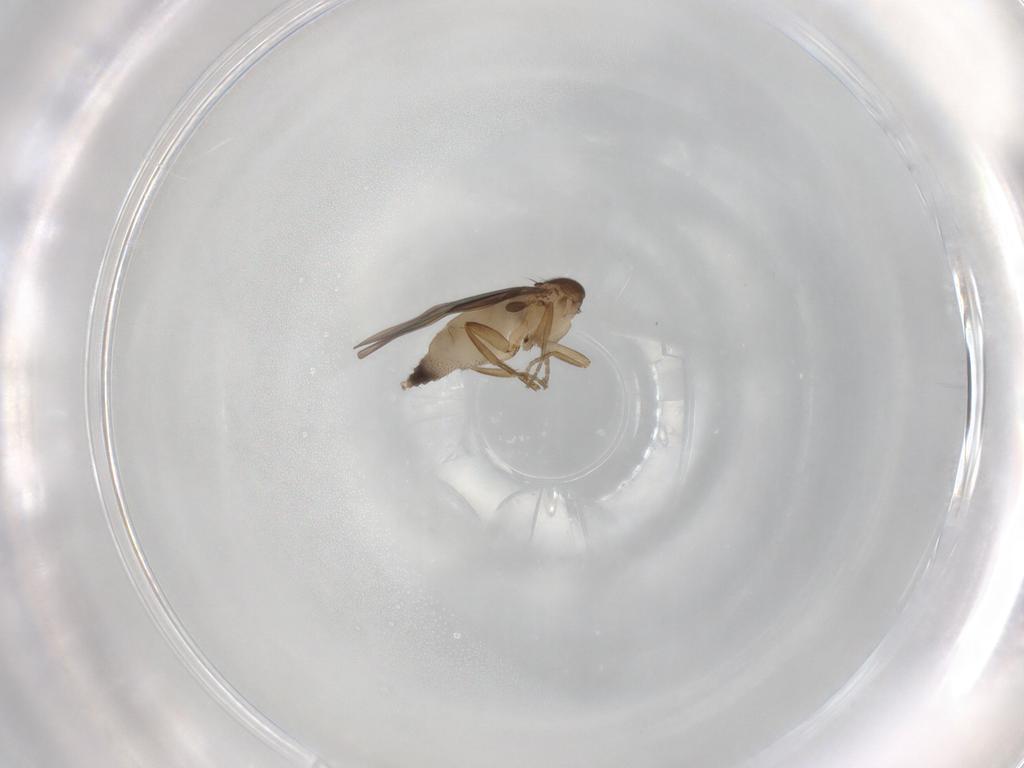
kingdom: Animalia
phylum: Arthropoda
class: Insecta
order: Diptera
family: Phoridae
